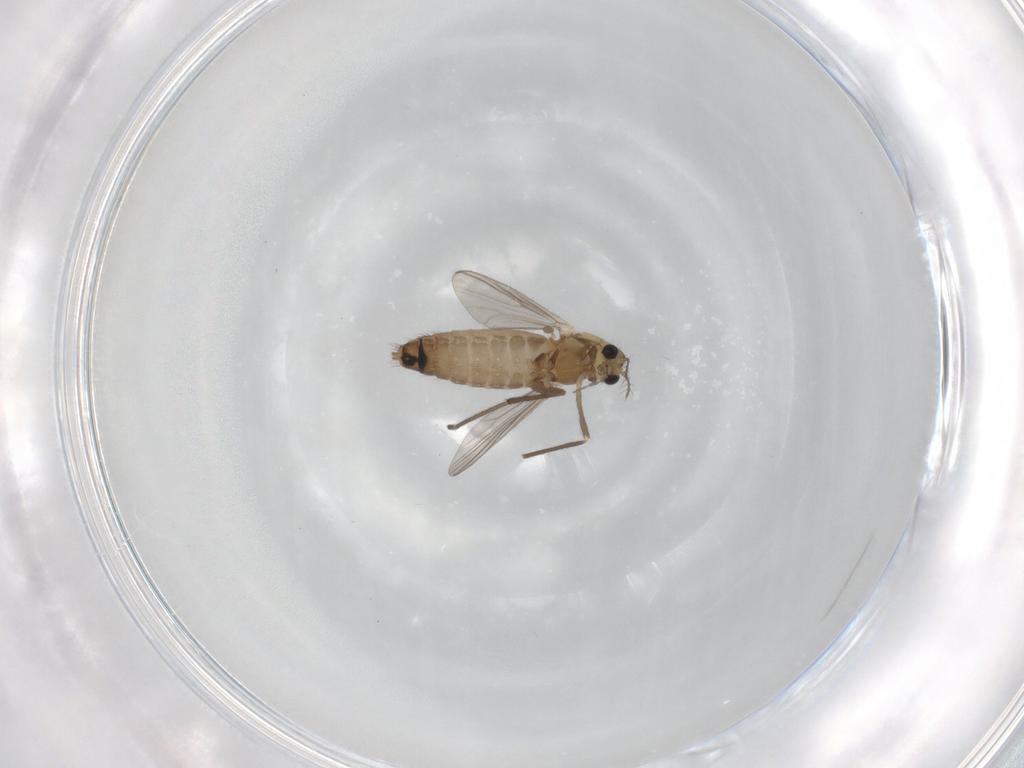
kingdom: Animalia
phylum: Arthropoda
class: Insecta
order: Diptera
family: Chironomidae
